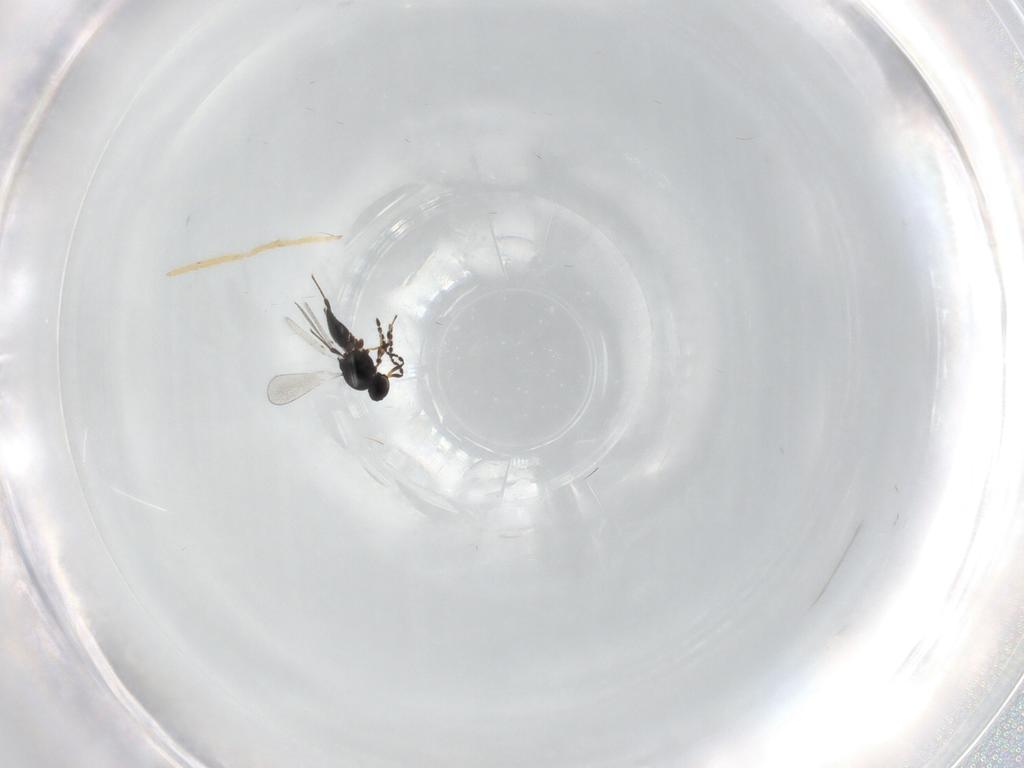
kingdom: Animalia
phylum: Arthropoda
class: Insecta
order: Hymenoptera
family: Platygastridae
